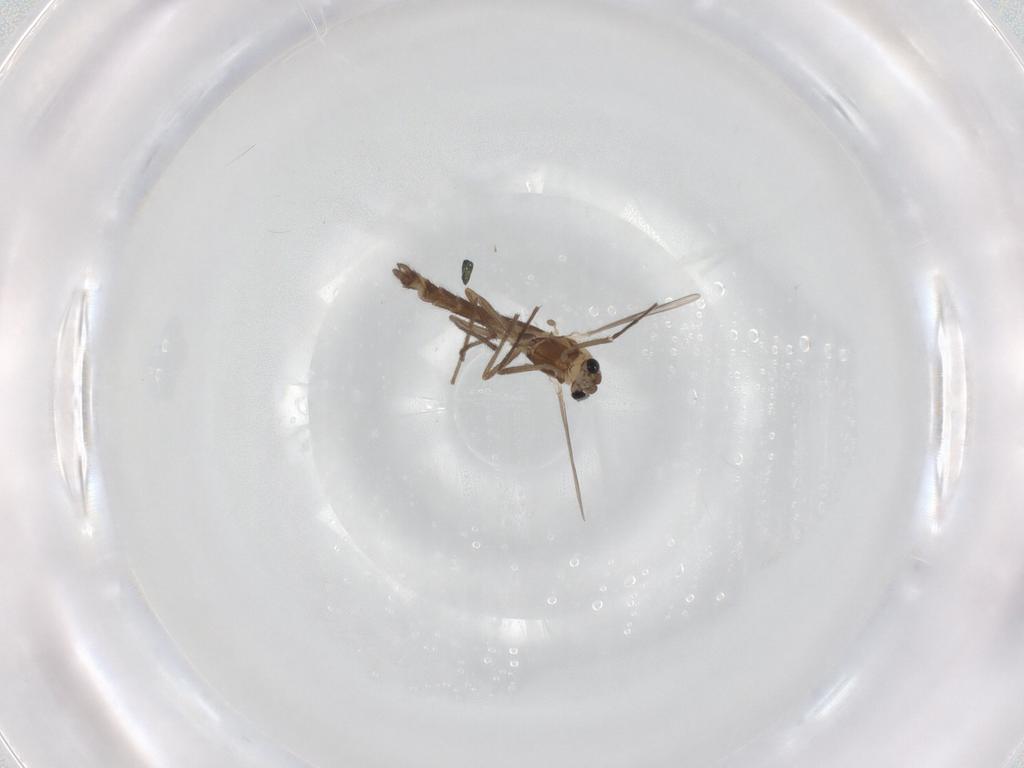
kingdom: Animalia
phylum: Arthropoda
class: Insecta
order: Diptera
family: Chironomidae
